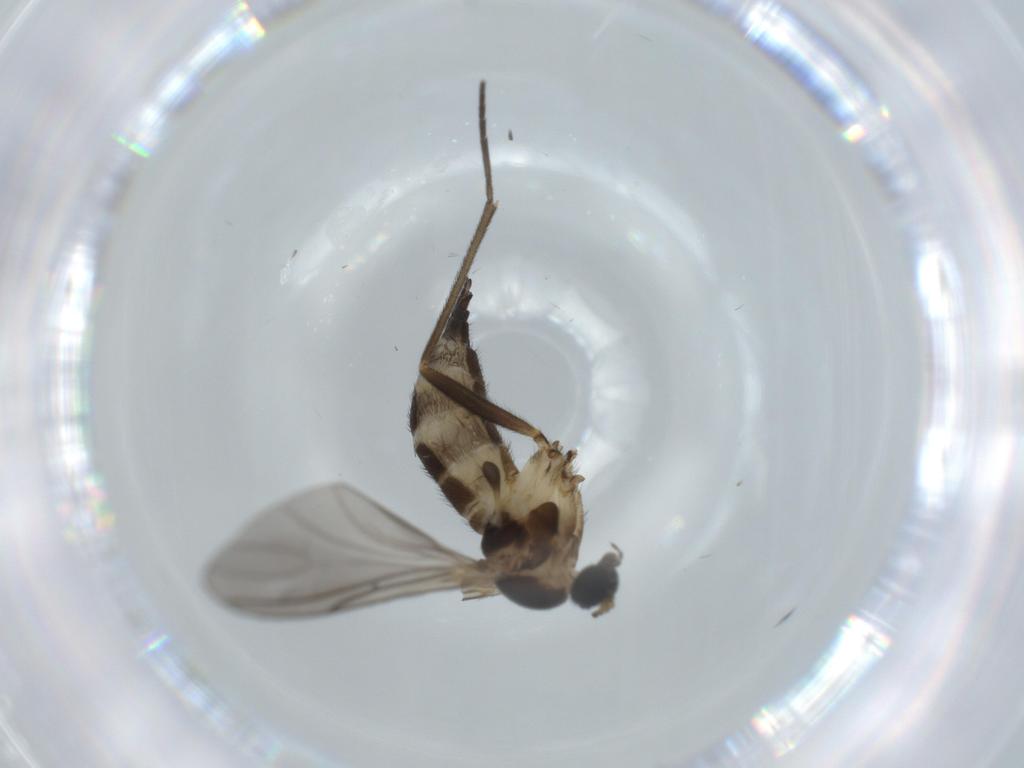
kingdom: Animalia
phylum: Arthropoda
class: Insecta
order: Diptera
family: Sciaridae
